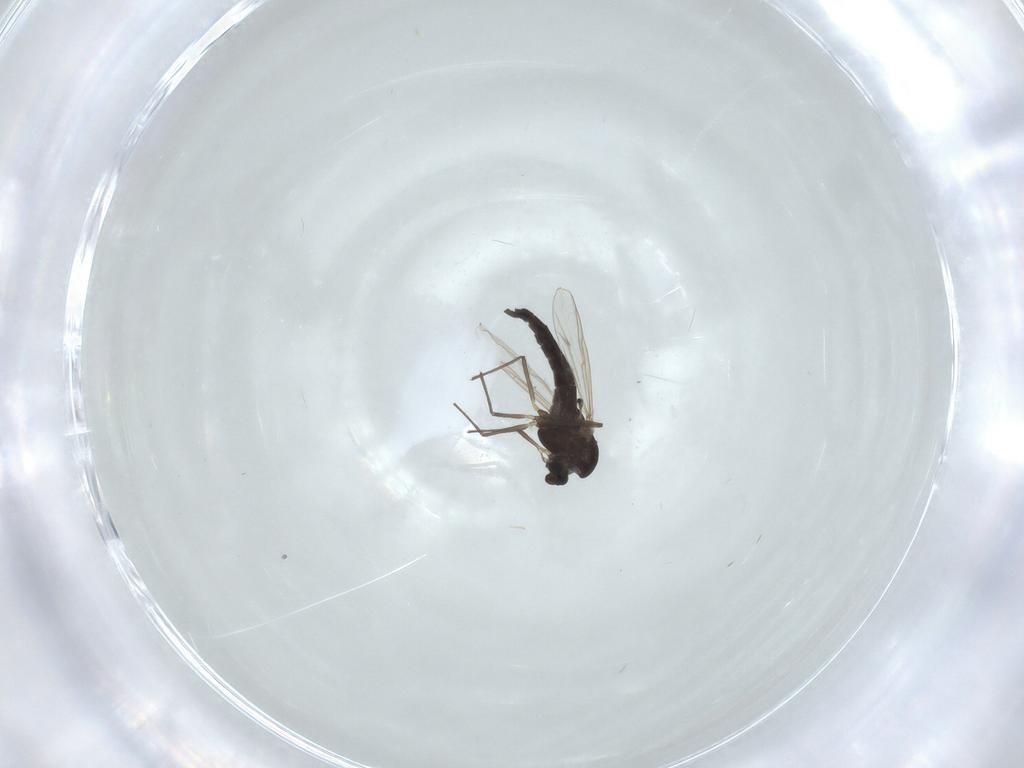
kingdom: Animalia
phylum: Arthropoda
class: Insecta
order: Diptera
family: Chironomidae
